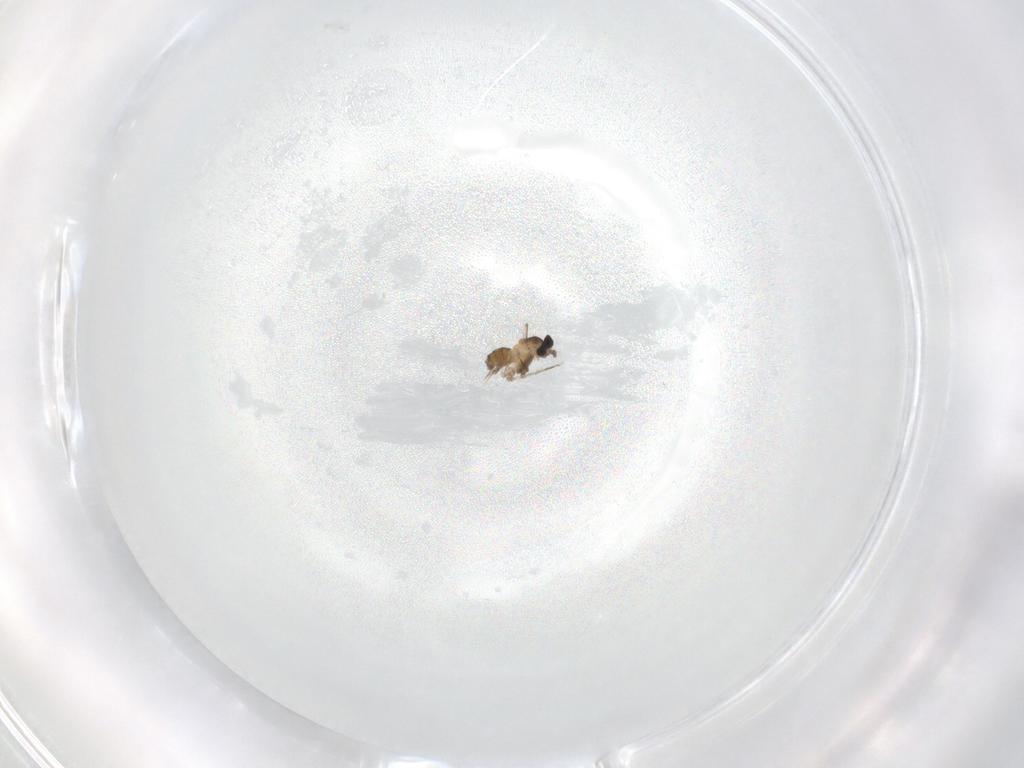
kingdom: Animalia
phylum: Arthropoda
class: Insecta
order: Diptera
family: Cecidomyiidae
